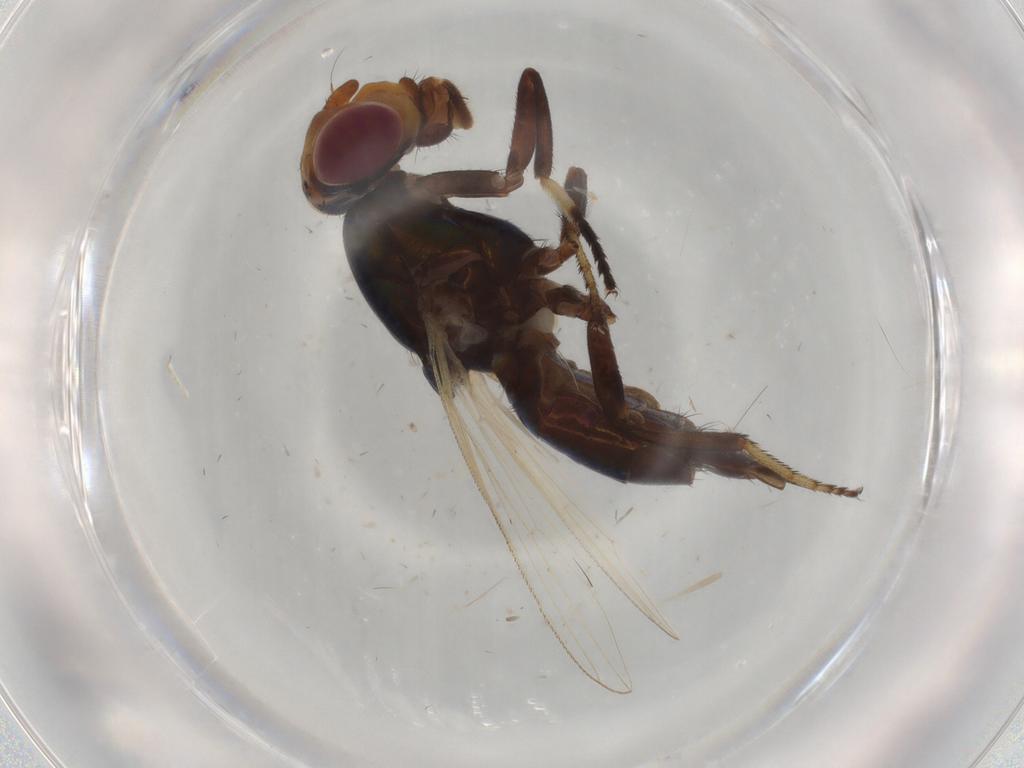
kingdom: Animalia
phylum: Arthropoda
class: Insecta
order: Diptera
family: Ulidiidae
